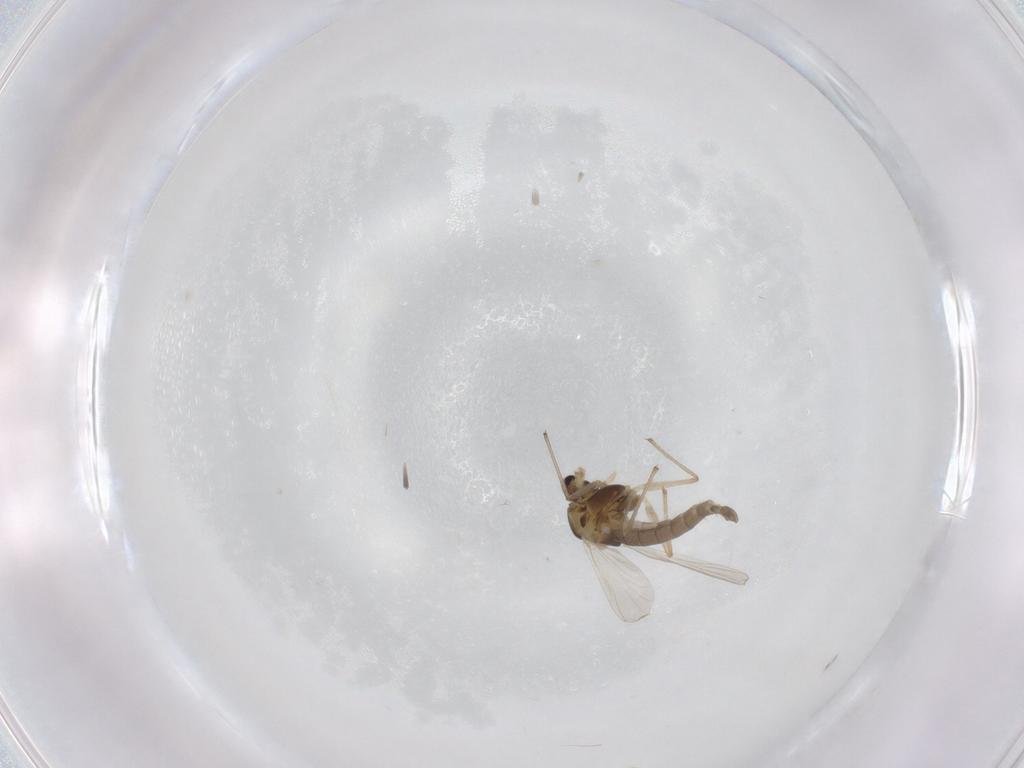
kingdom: Animalia
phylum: Arthropoda
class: Insecta
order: Diptera
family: Chironomidae
